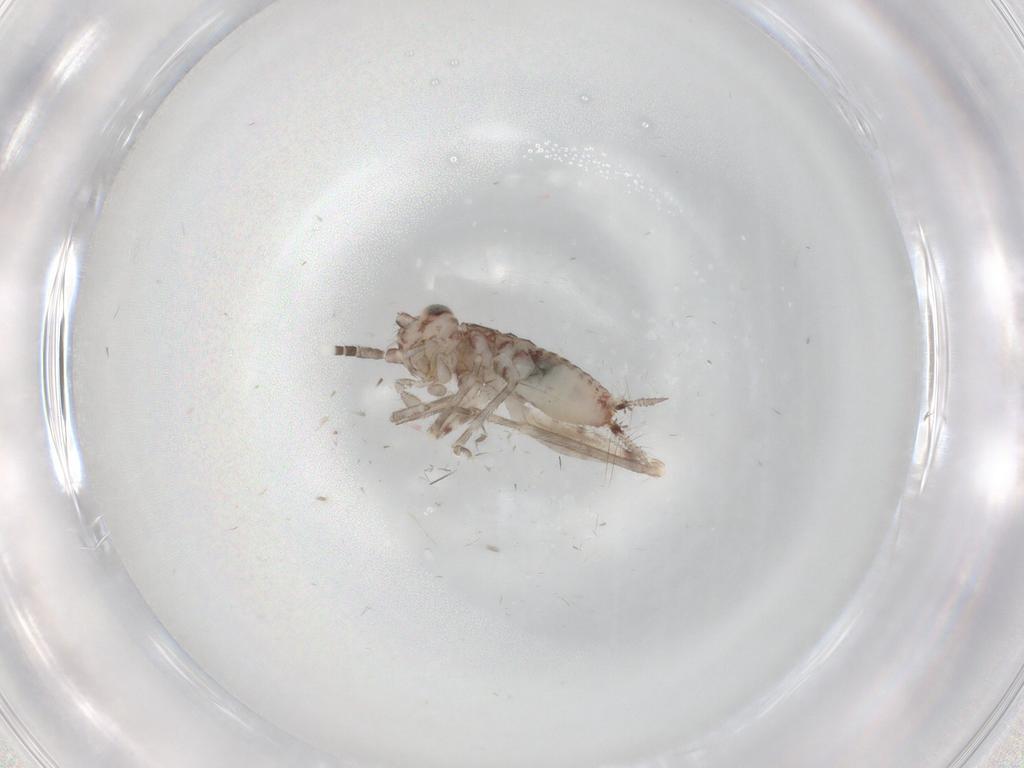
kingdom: Animalia
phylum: Arthropoda
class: Insecta
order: Orthoptera
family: Trigonidiidae
